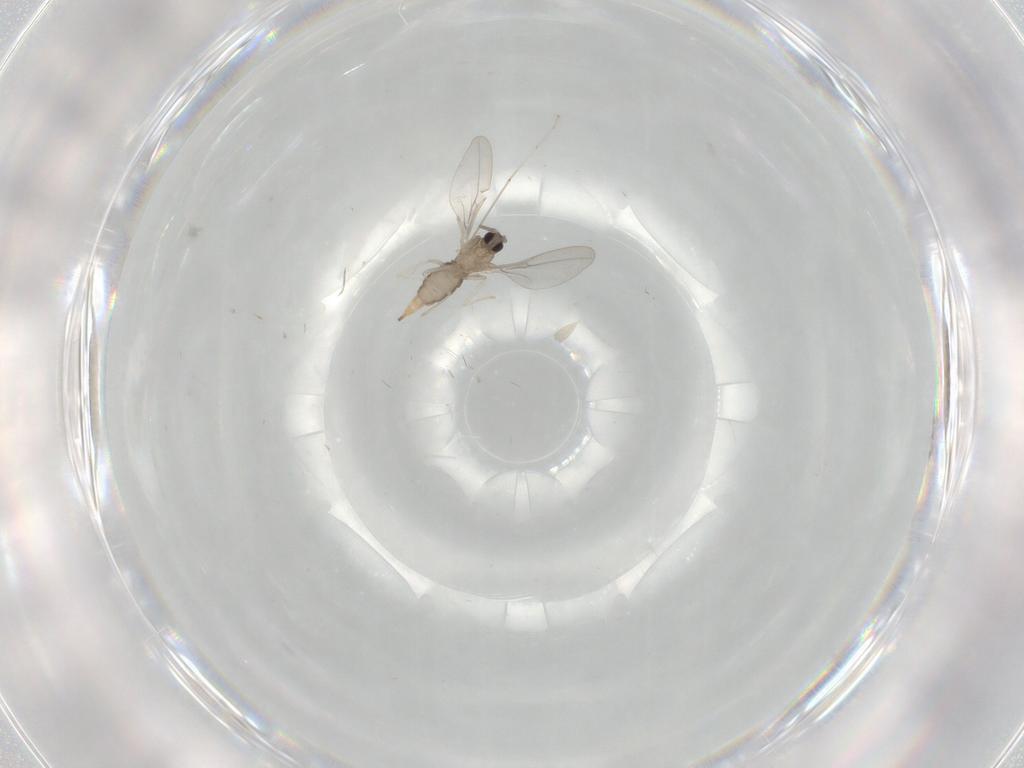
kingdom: Animalia
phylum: Arthropoda
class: Insecta
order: Diptera
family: Cecidomyiidae
